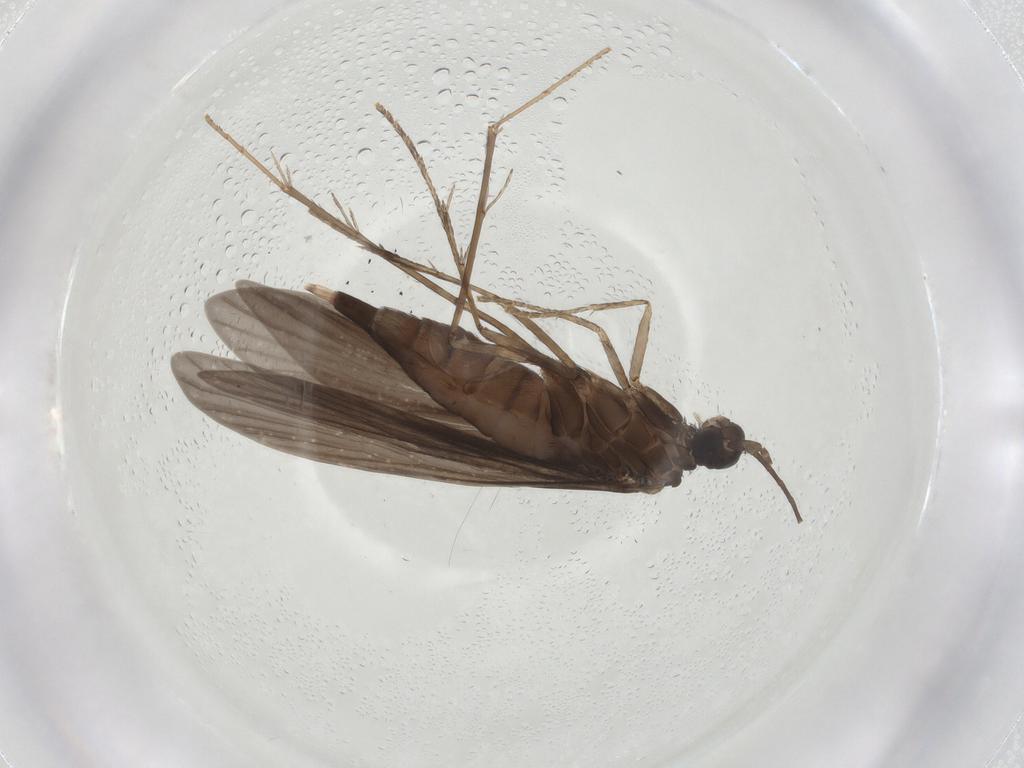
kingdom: Animalia
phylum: Arthropoda
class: Insecta
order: Trichoptera
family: Xiphocentronidae
